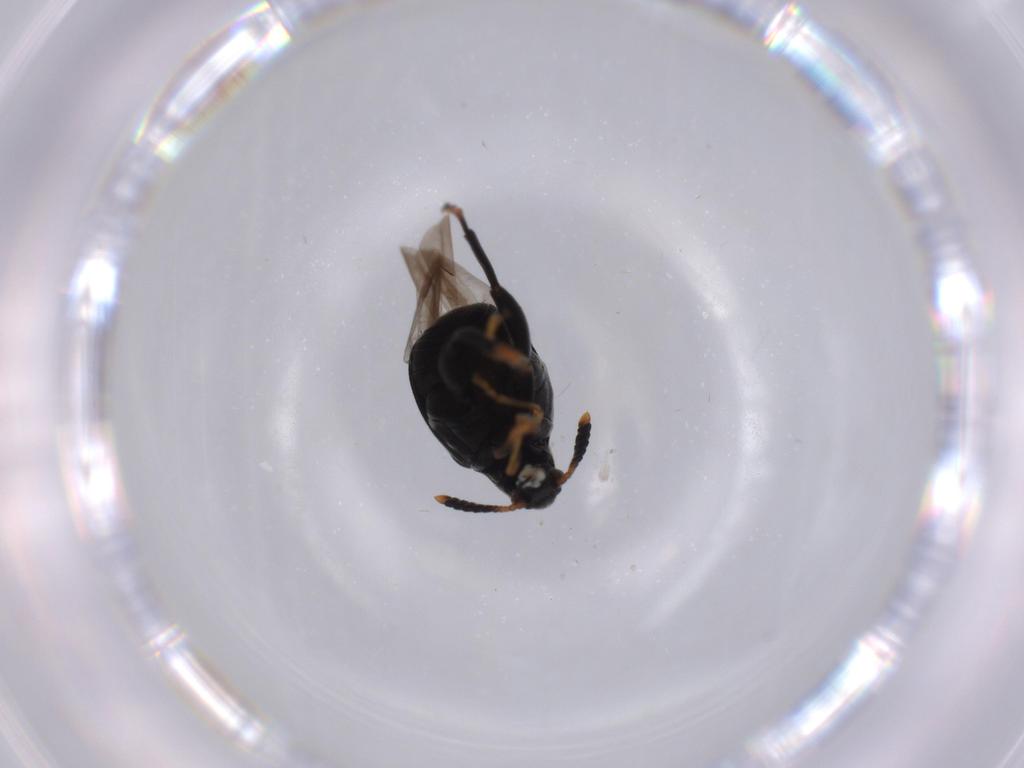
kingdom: Animalia
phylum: Arthropoda
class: Insecta
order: Coleoptera
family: Chrysomelidae
